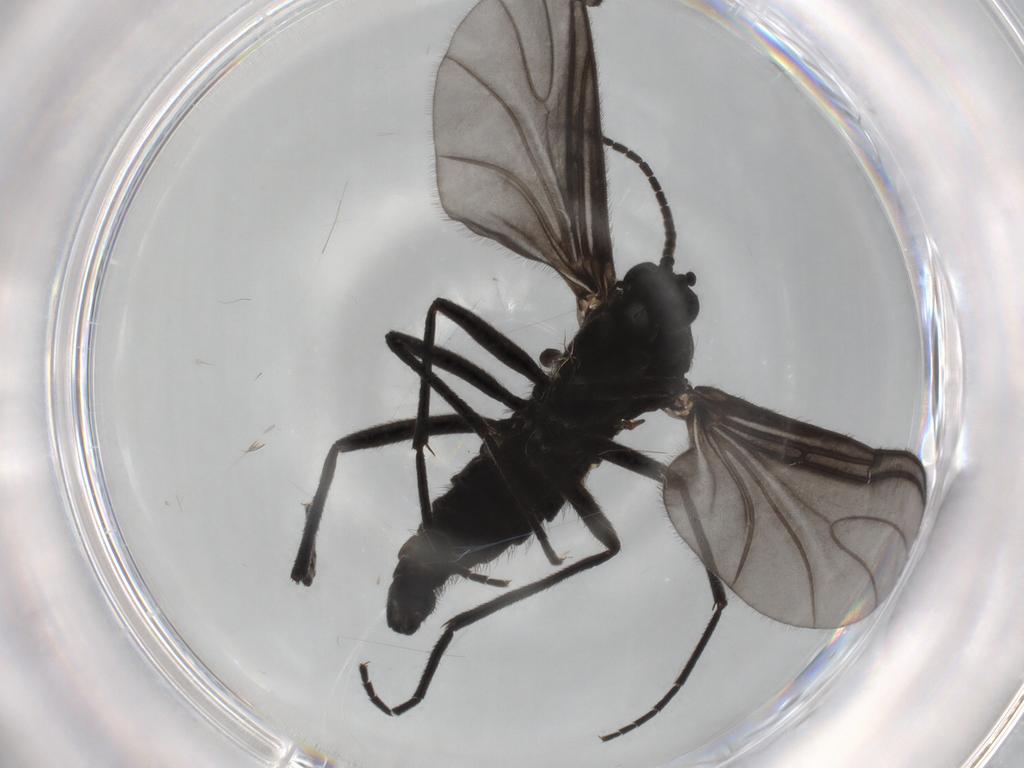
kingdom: Animalia
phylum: Arthropoda
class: Insecta
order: Diptera
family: Psychodidae
